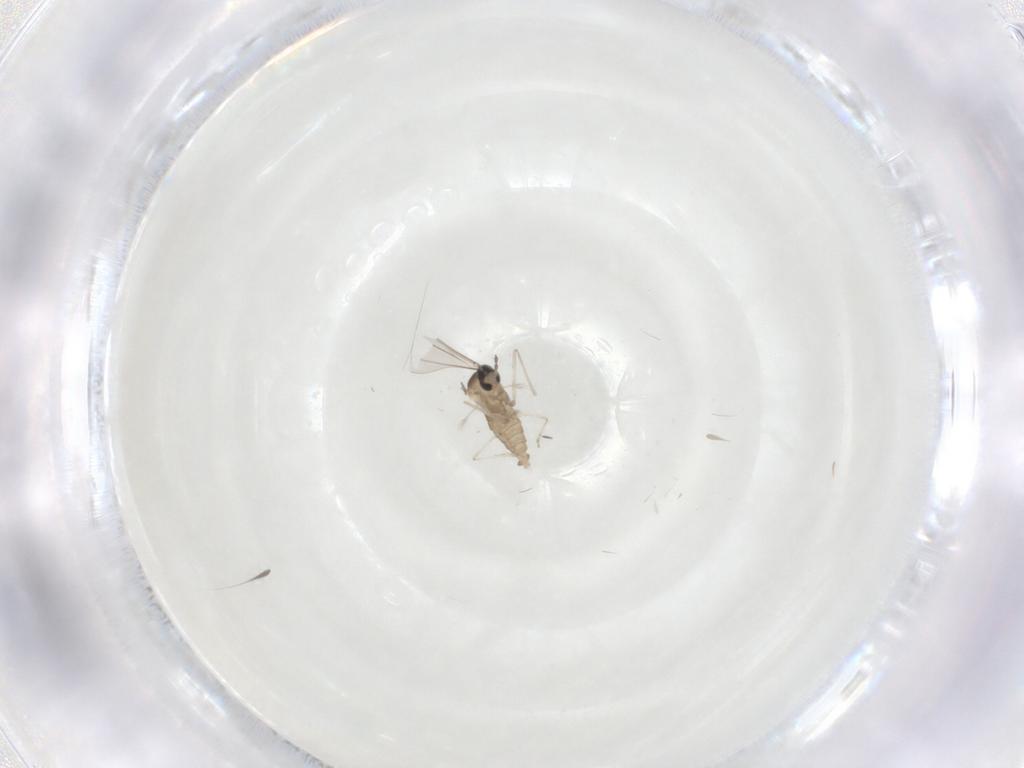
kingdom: Animalia
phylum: Arthropoda
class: Insecta
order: Diptera
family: Cecidomyiidae
